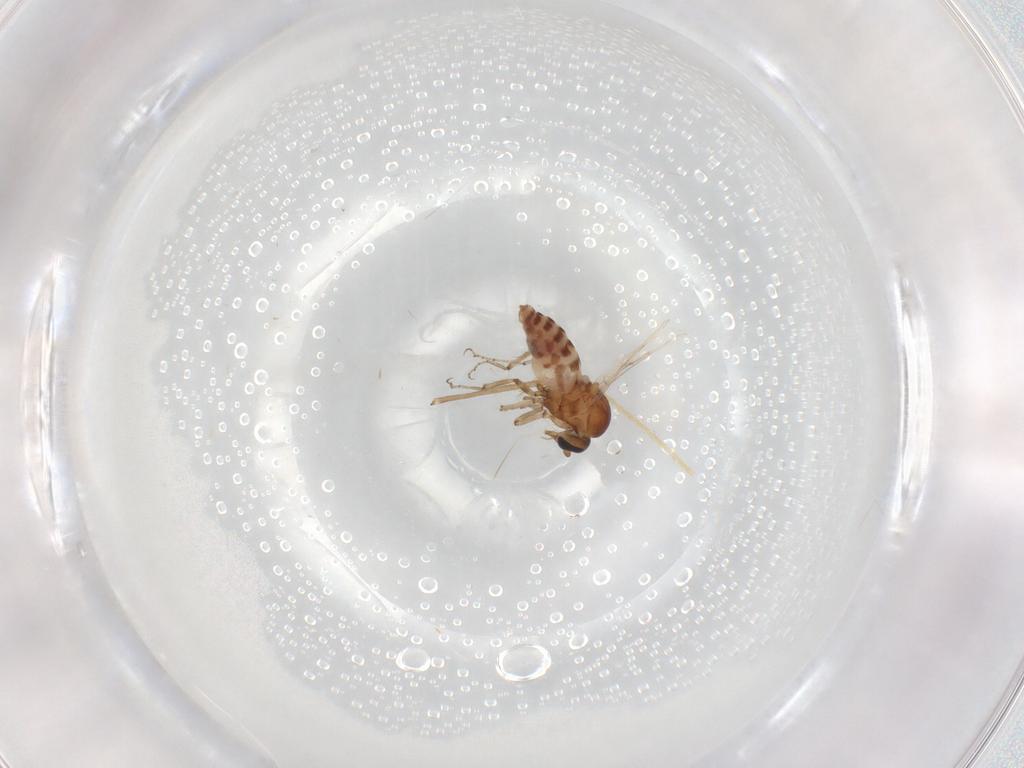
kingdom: Animalia
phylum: Arthropoda
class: Insecta
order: Diptera
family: Ceratopogonidae
